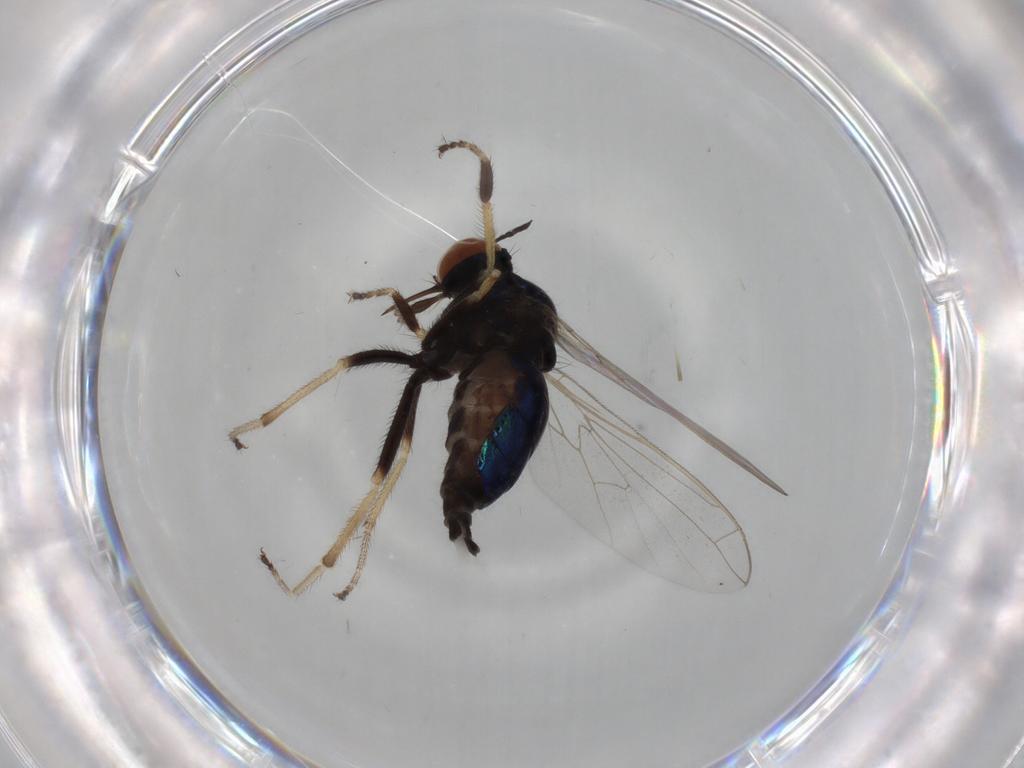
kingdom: Animalia
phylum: Arthropoda
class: Insecta
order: Diptera
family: Empididae
